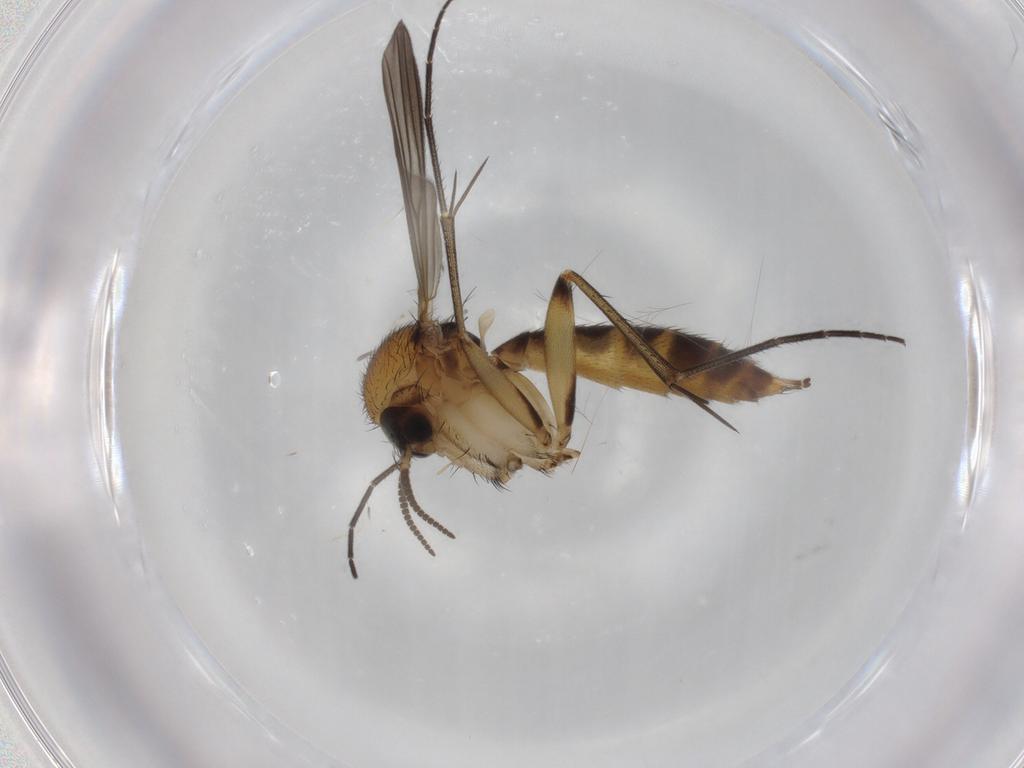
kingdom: Animalia
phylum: Arthropoda
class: Insecta
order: Diptera
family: Mycetophilidae
